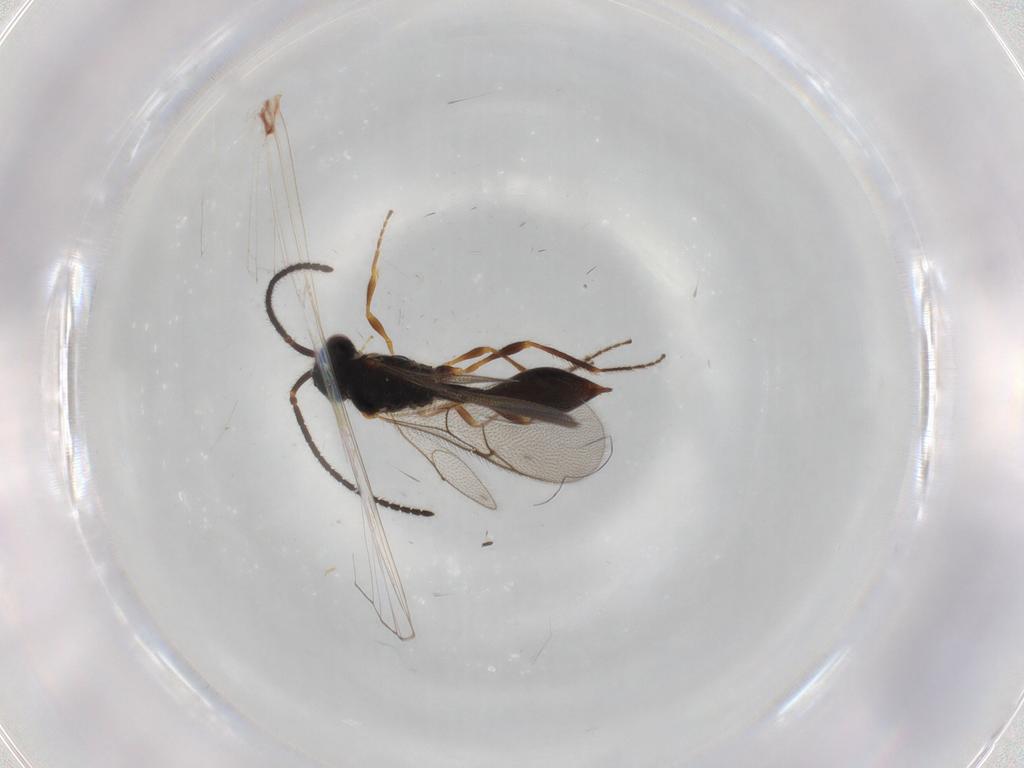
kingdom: Animalia
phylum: Arthropoda
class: Insecta
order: Hymenoptera
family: Diapriidae
